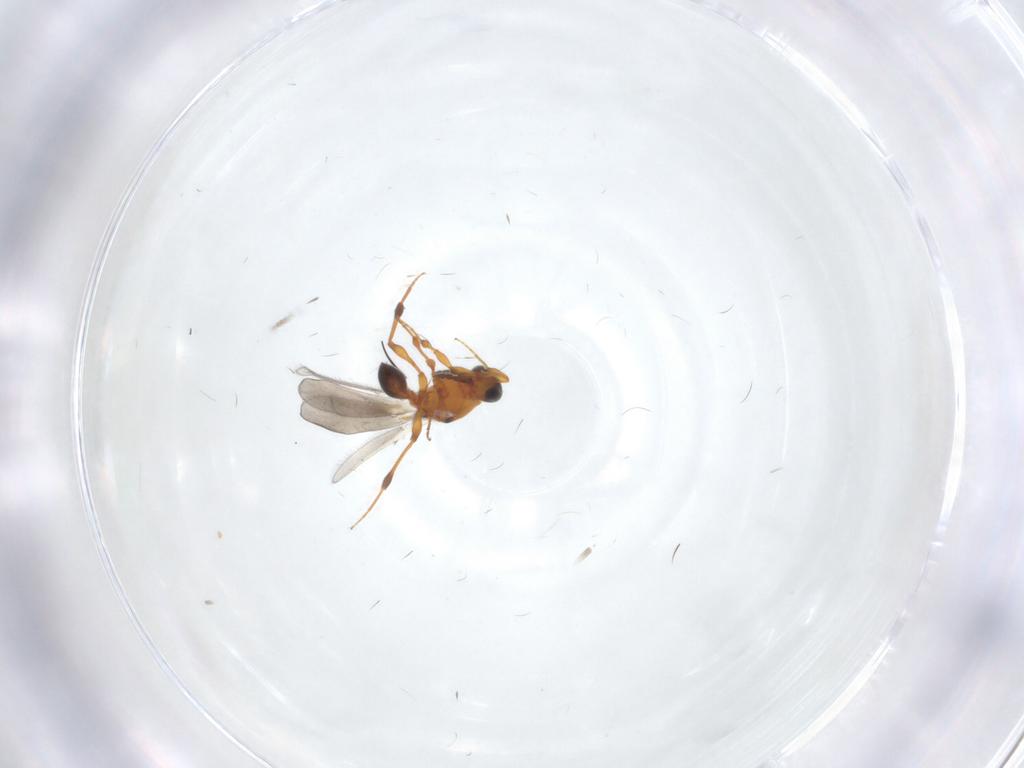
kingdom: Animalia
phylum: Arthropoda
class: Insecta
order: Hymenoptera
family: Platygastridae
